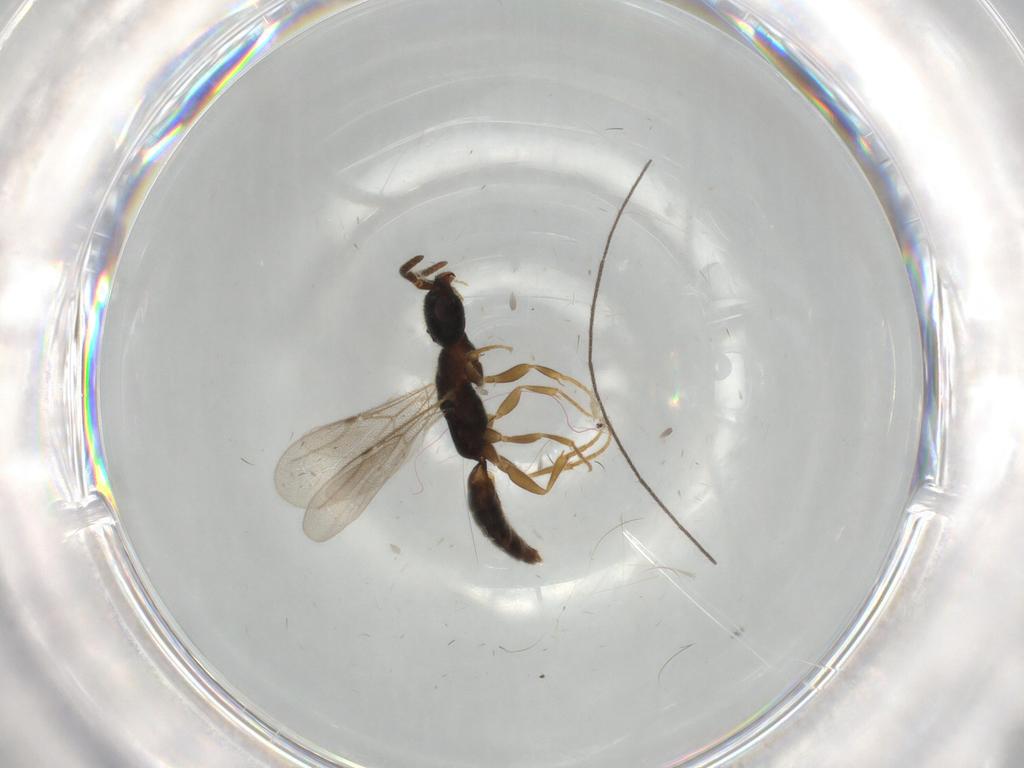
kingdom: Animalia
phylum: Arthropoda
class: Insecta
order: Hymenoptera
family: Bethylidae
